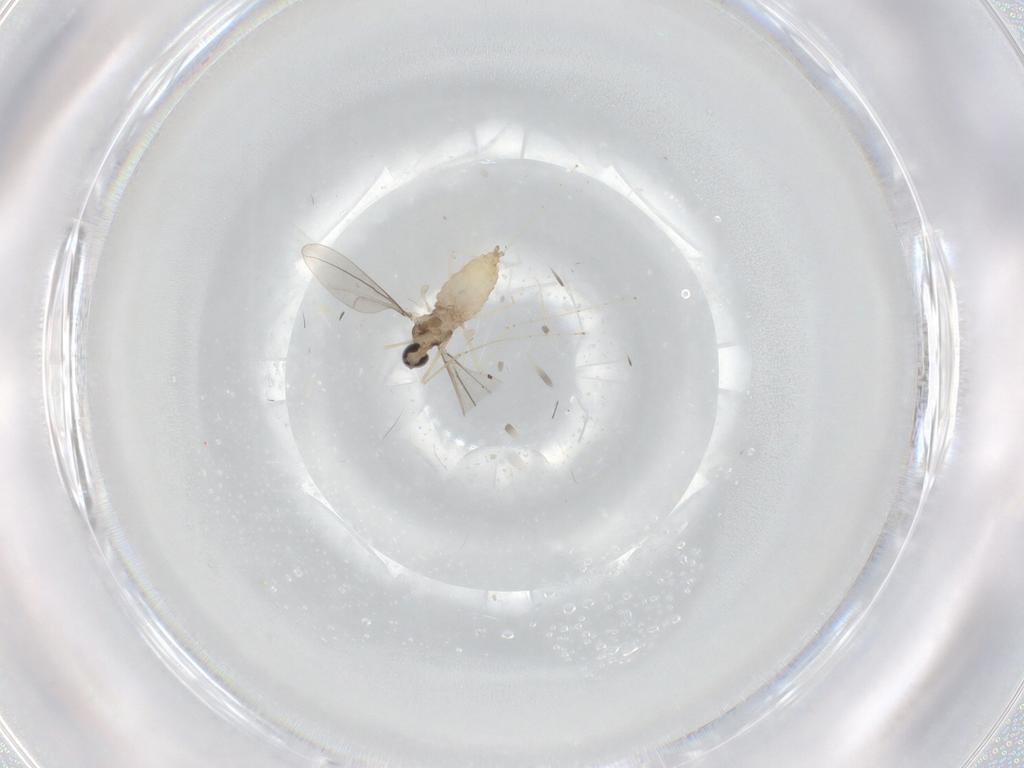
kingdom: Animalia
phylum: Arthropoda
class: Insecta
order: Diptera
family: Cecidomyiidae
